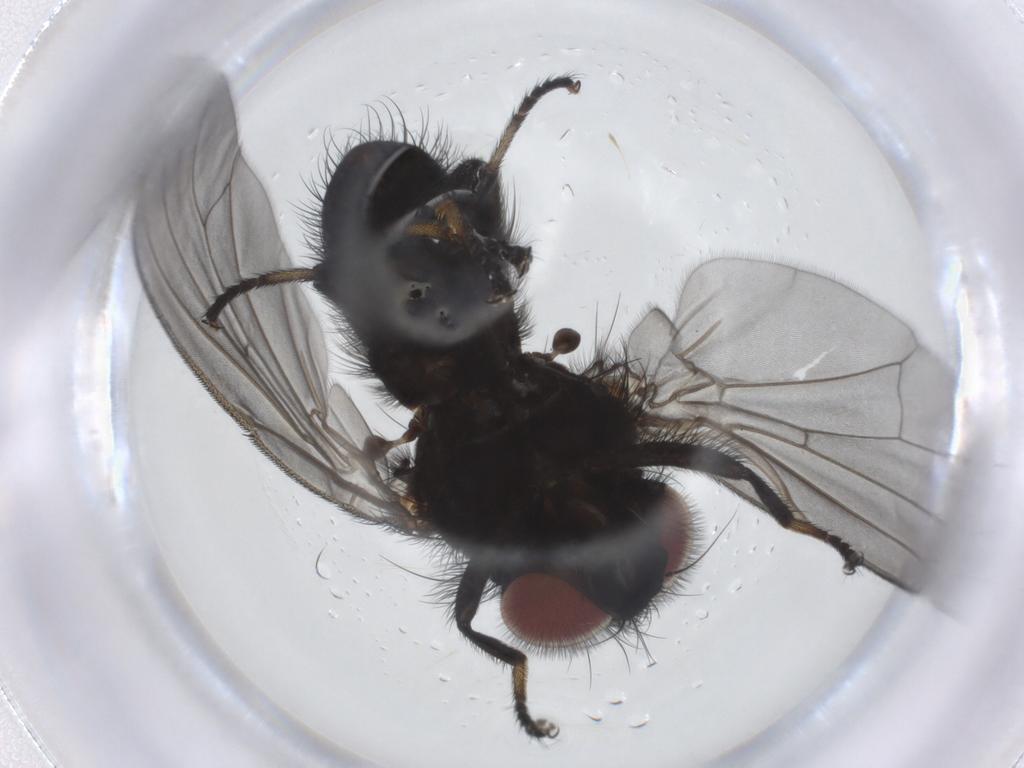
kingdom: Animalia
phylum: Arthropoda
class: Insecta
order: Diptera
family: Lonchaeidae
